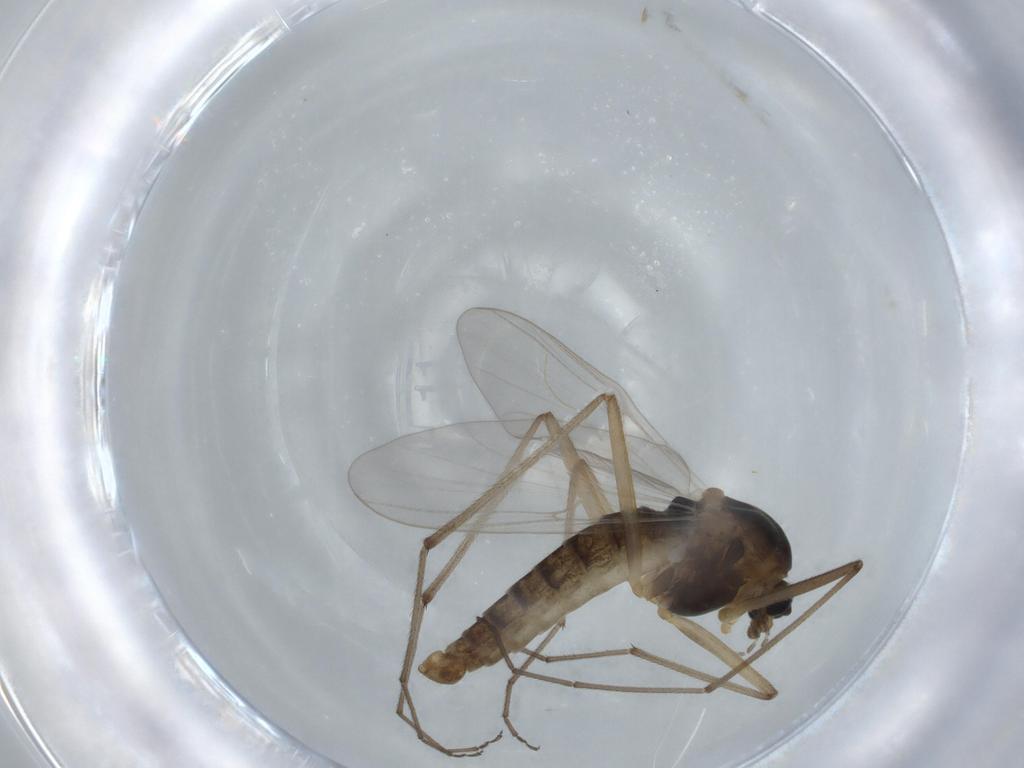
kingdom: Animalia
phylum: Arthropoda
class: Insecta
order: Diptera
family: Chironomidae
